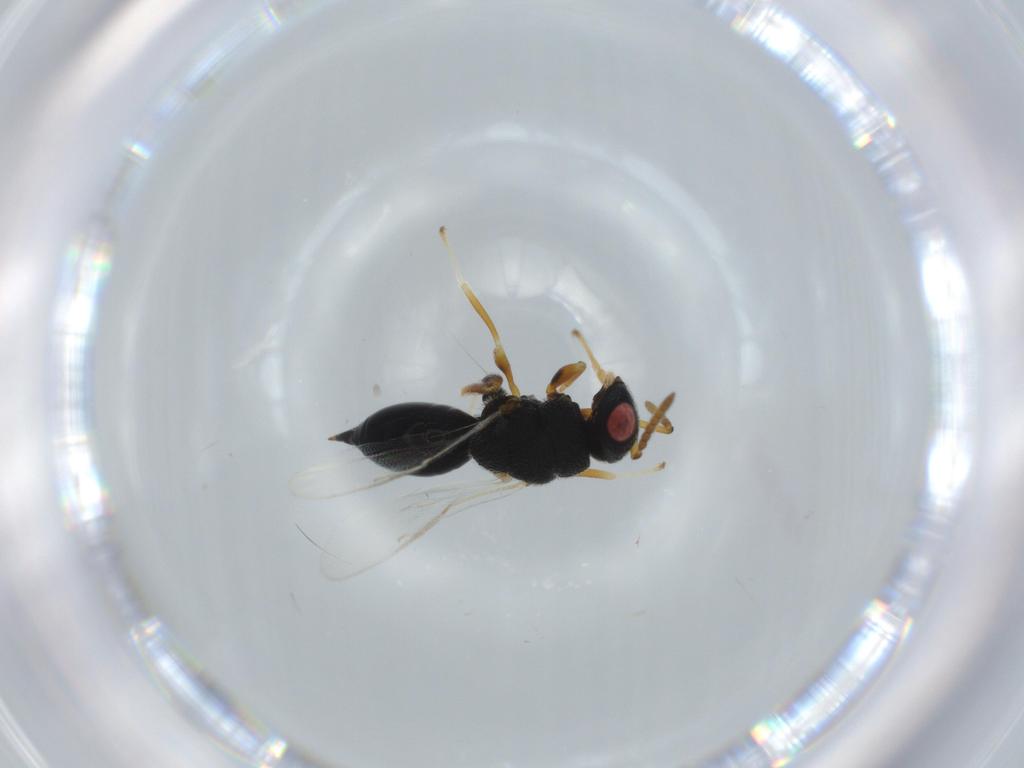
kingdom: Animalia
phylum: Arthropoda
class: Insecta
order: Hymenoptera
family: Eurytomidae
